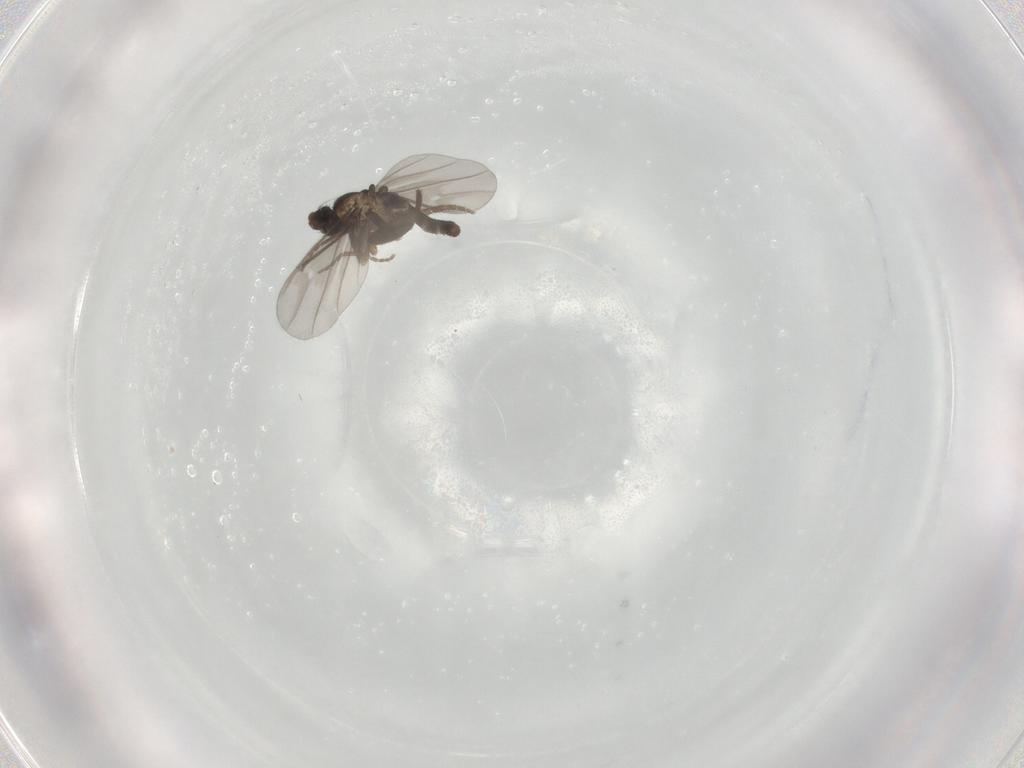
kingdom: Animalia
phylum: Arthropoda
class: Insecta
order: Diptera
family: Phoridae
